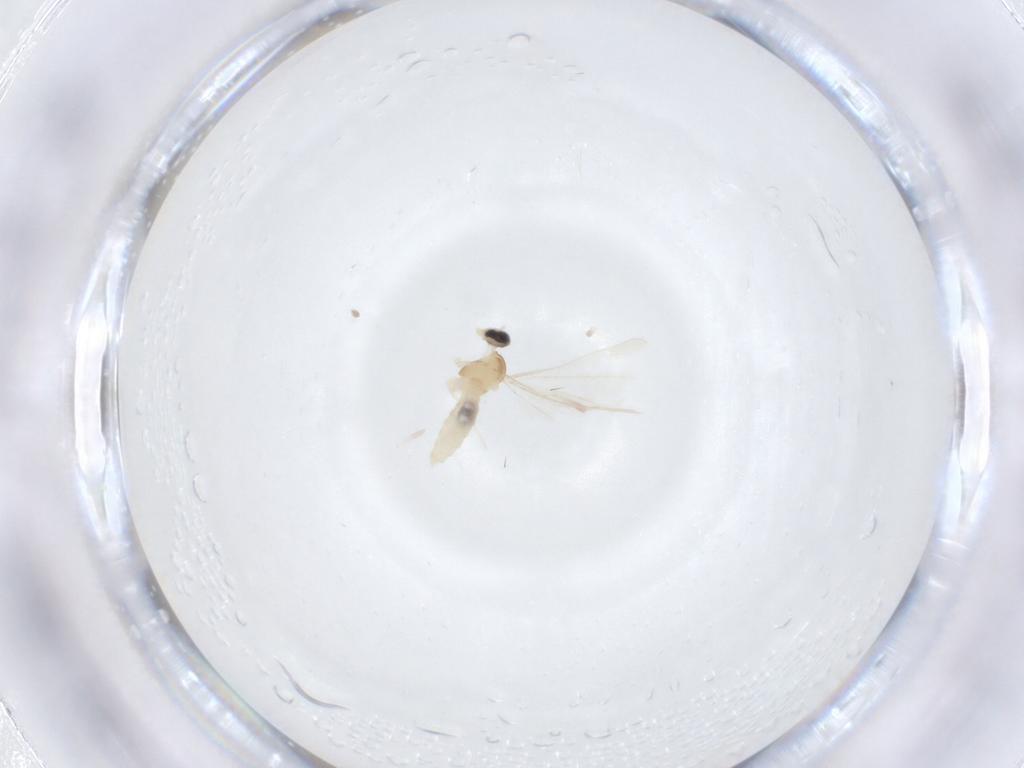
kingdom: Animalia
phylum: Arthropoda
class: Insecta
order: Diptera
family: Cecidomyiidae
